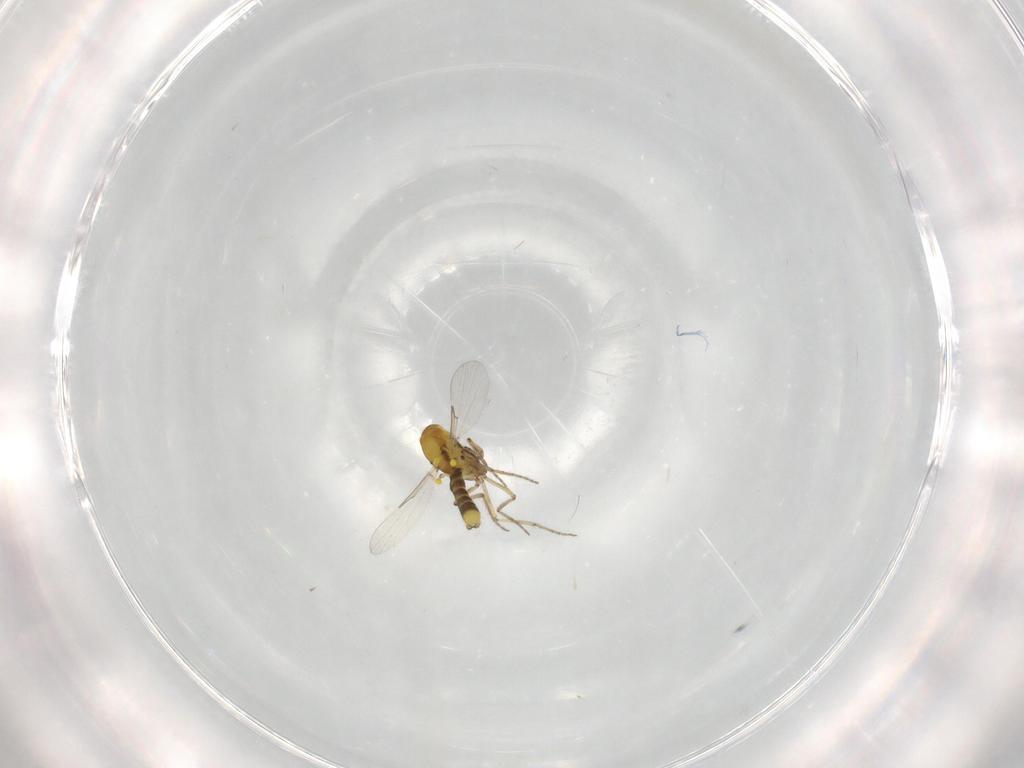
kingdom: Animalia
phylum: Arthropoda
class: Insecta
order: Diptera
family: Ceratopogonidae
